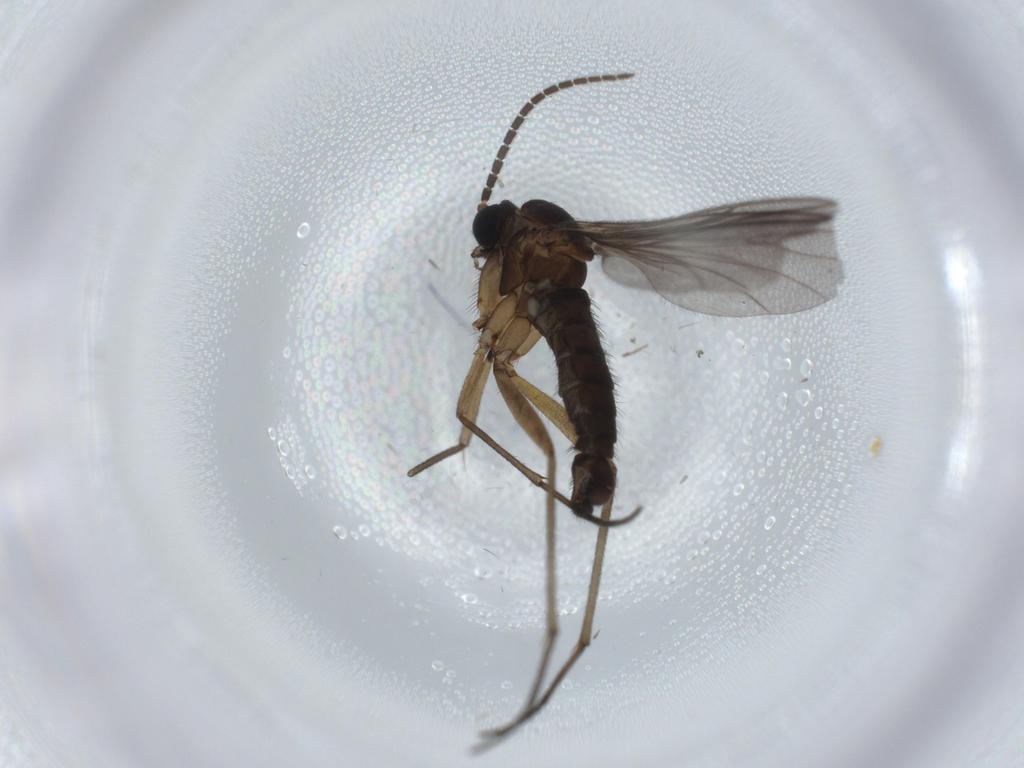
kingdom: Animalia
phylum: Arthropoda
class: Insecta
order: Diptera
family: Sciaridae
